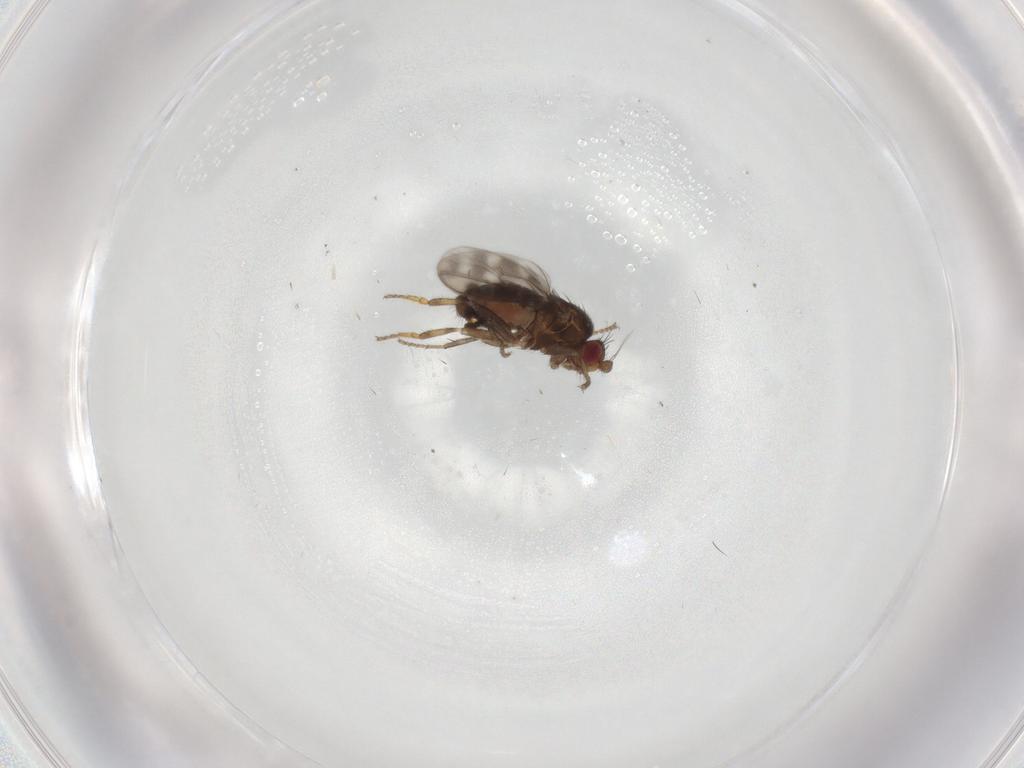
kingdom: Animalia
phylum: Arthropoda
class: Insecta
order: Diptera
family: Sphaeroceridae
